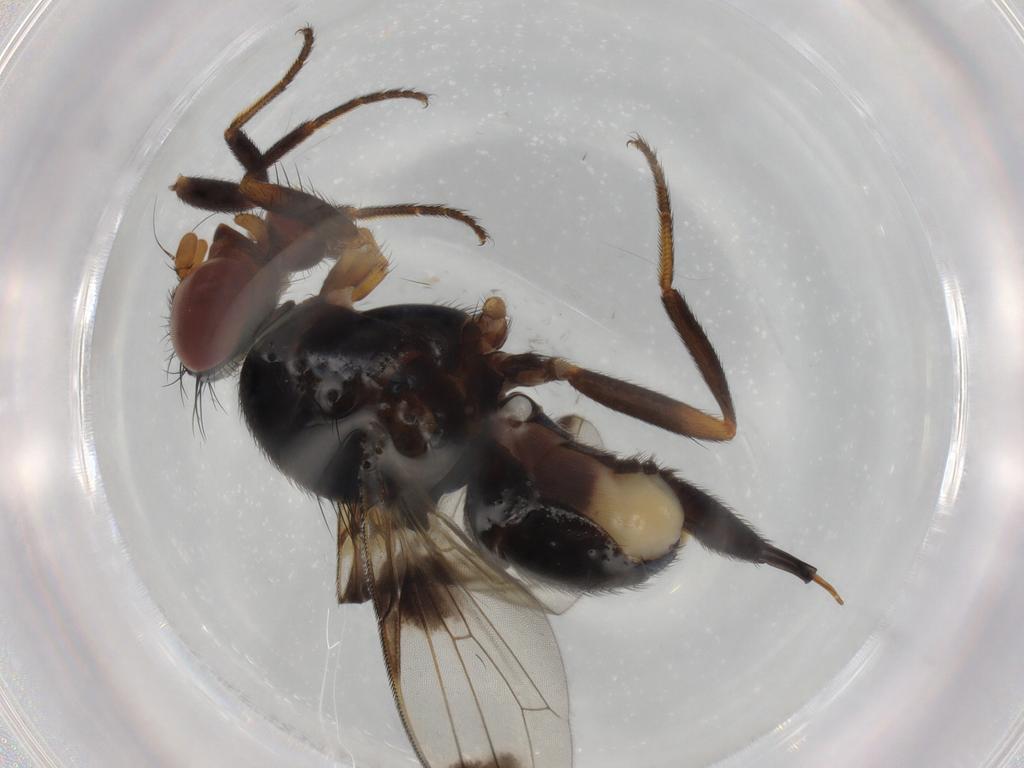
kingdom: Animalia
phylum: Arthropoda
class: Insecta
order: Diptera
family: Ulidiidae
